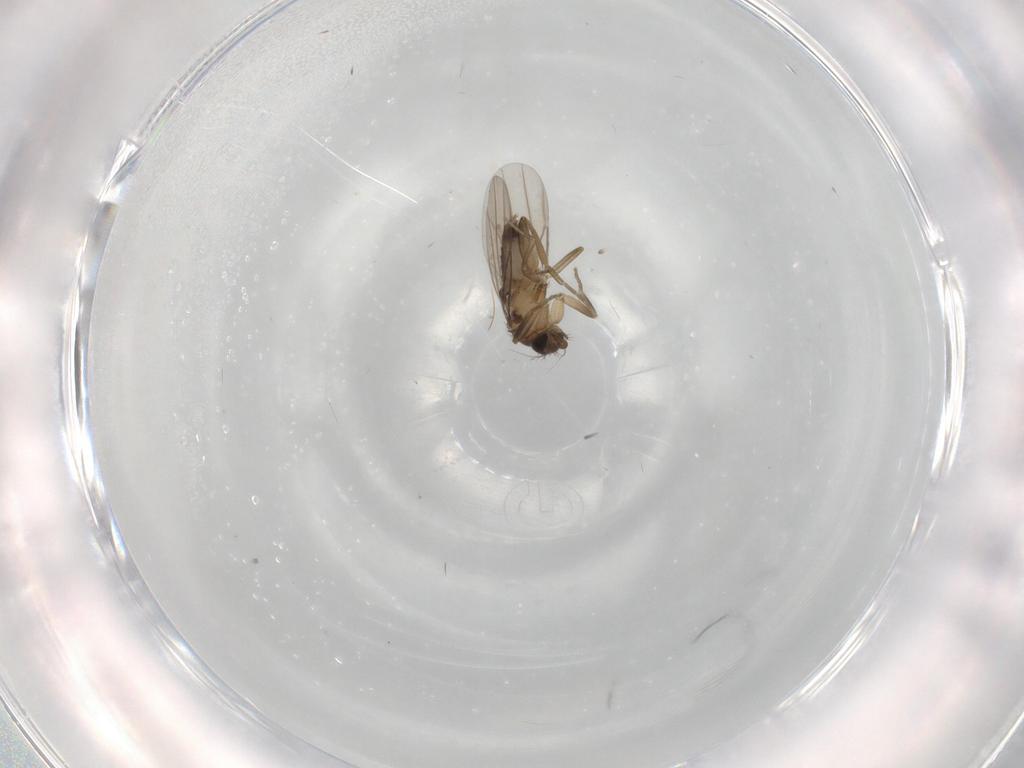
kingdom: Animalia
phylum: Arthropoda
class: Insecta
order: Diptera
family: Phoridae
